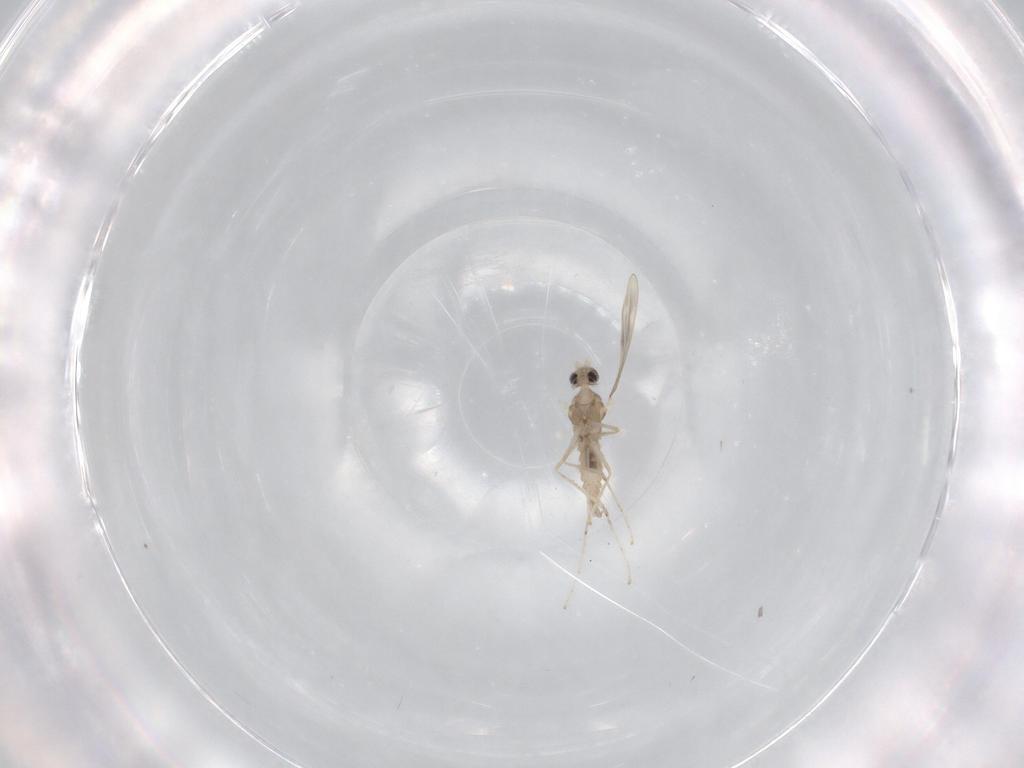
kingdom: Animalia
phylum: Arthropoda
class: Insecta
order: Diptera
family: Cecidomyiidae
